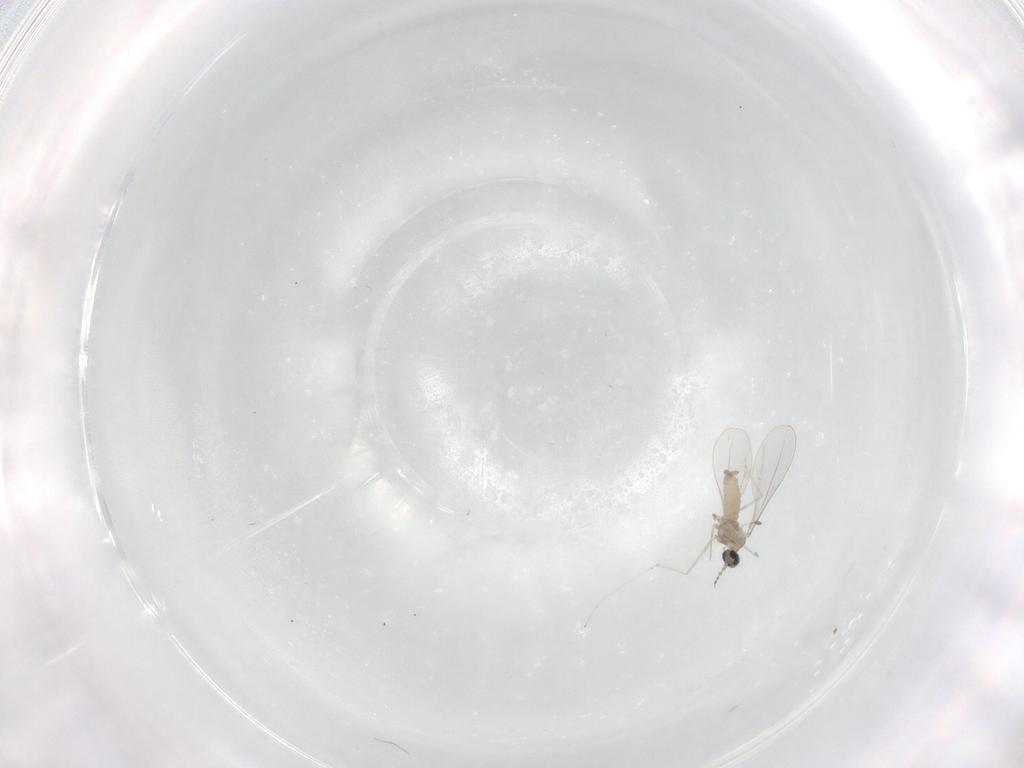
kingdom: Animalia
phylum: Arthropoda
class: Insecta
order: Diptera
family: Cecidomyiidae
